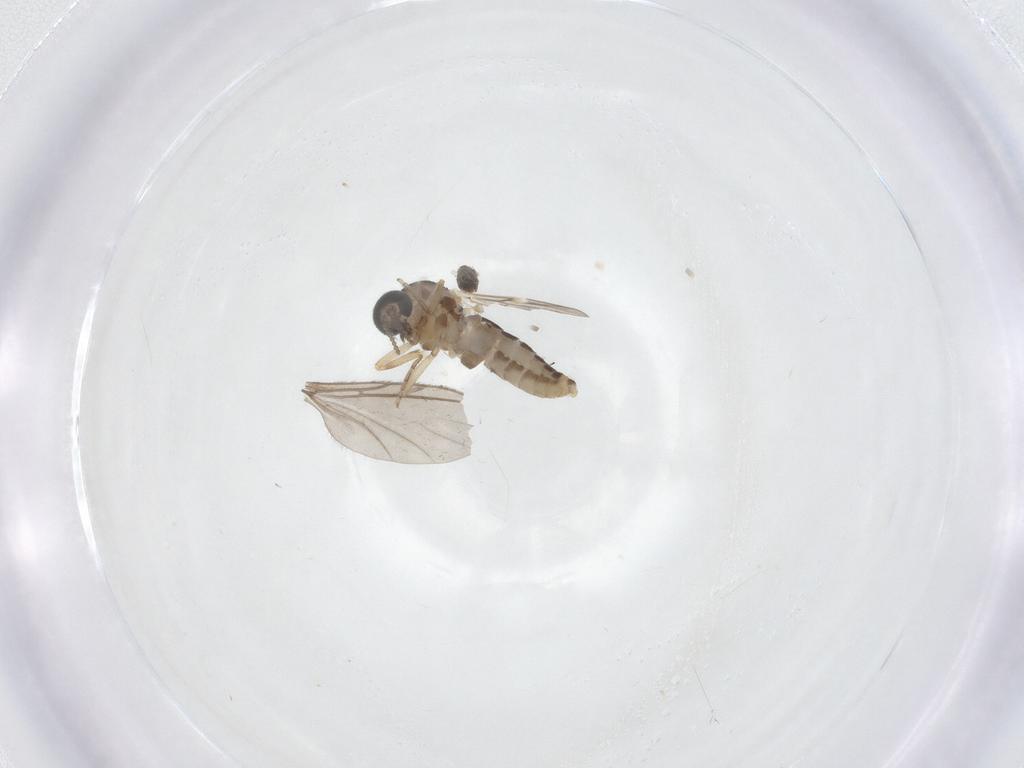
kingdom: Animalia
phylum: Arthropoda
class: Insecta
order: Diptera
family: Ceratopogonidae
